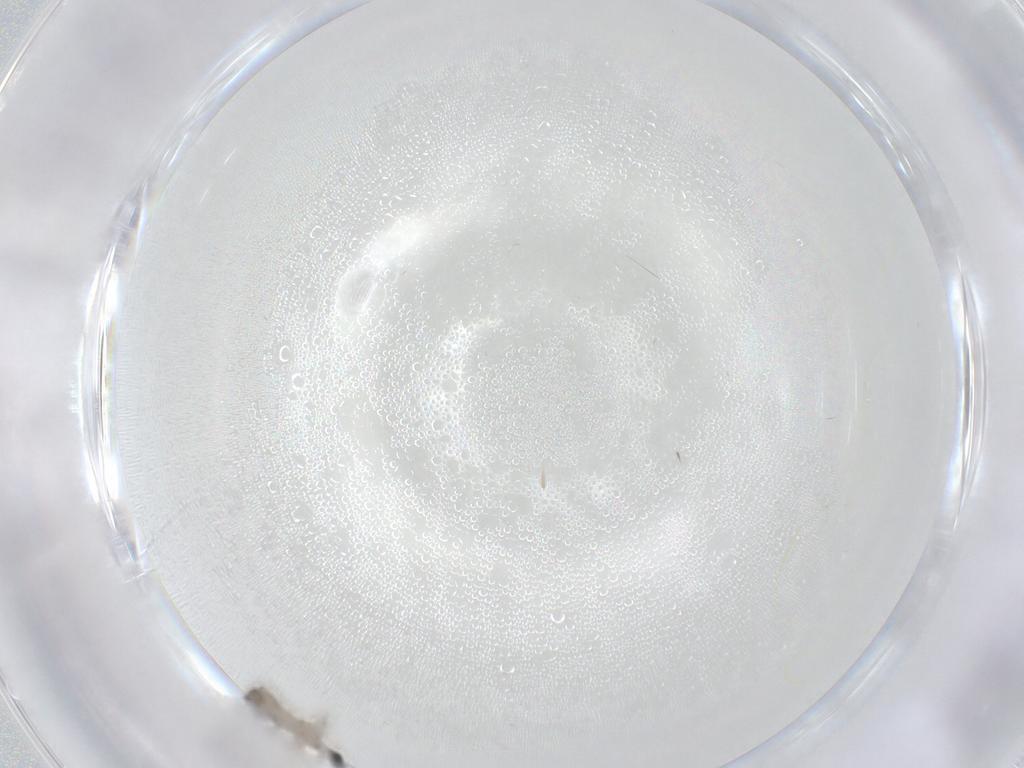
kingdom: Animalia
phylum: Arthropoda
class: Insecta
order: Diptera
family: Cecidomyiidae
